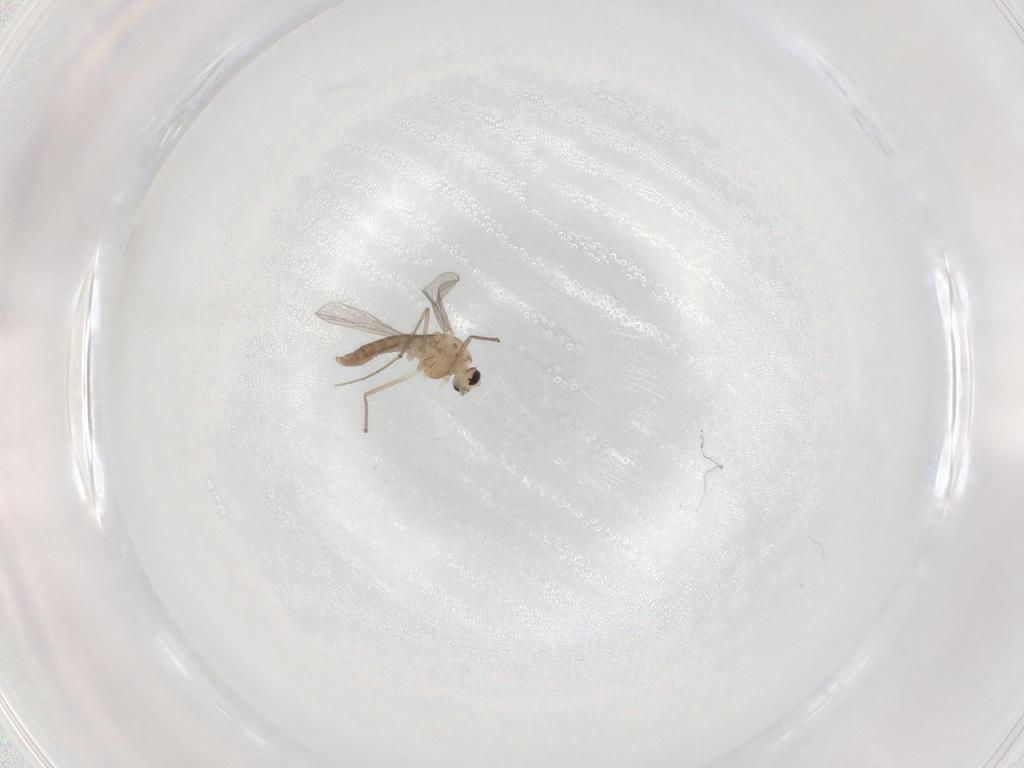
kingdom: Animalia
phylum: Arthropoda
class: Insecta
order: Diptera
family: Chironomidae
